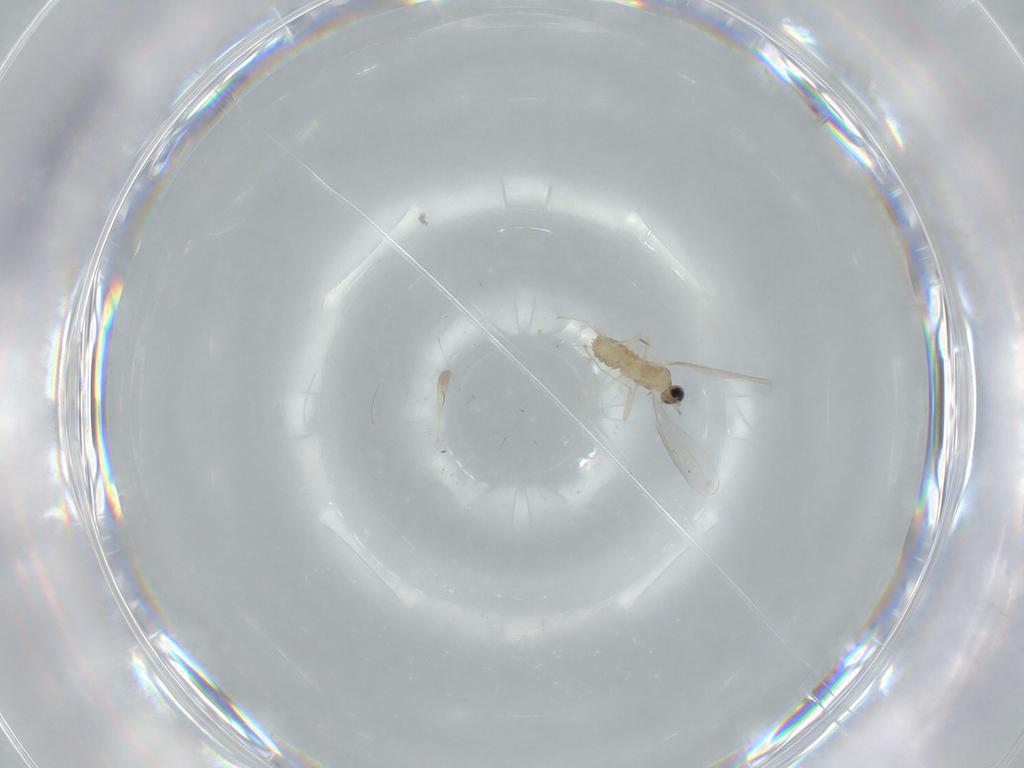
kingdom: Animalia
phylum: Arthropoda
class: Insecta
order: Diptera
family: Cecidomyiidae
